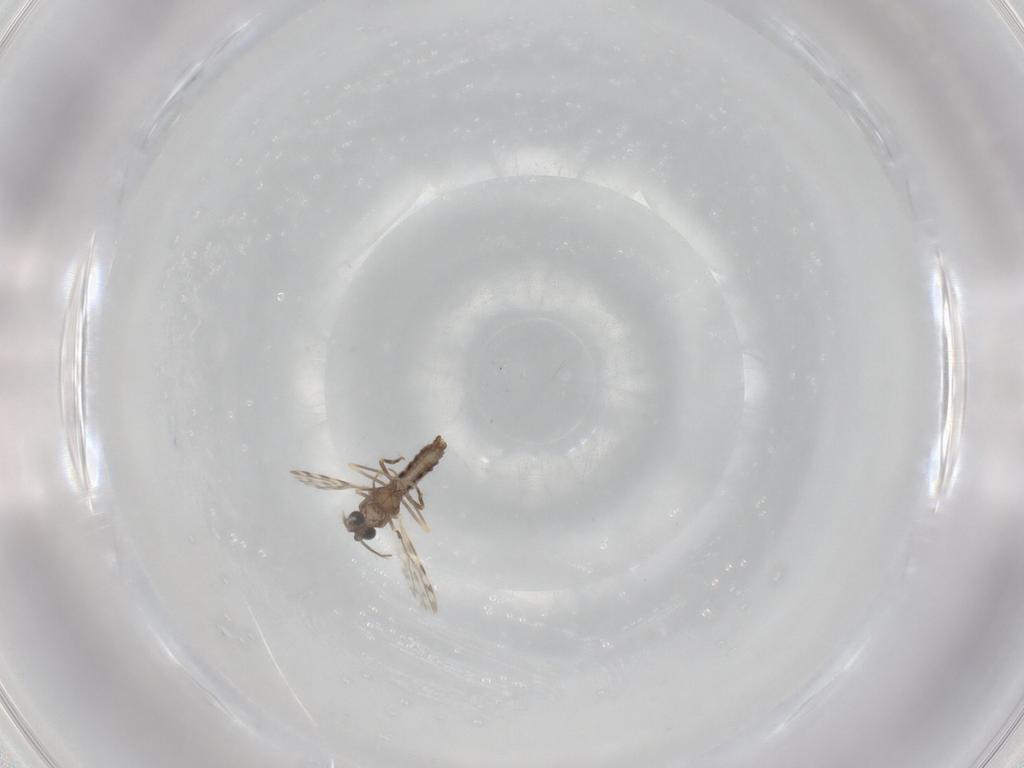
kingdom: Animalia
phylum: Arthropoda
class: Insecta
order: Diptera
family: Ceratopogonidae
